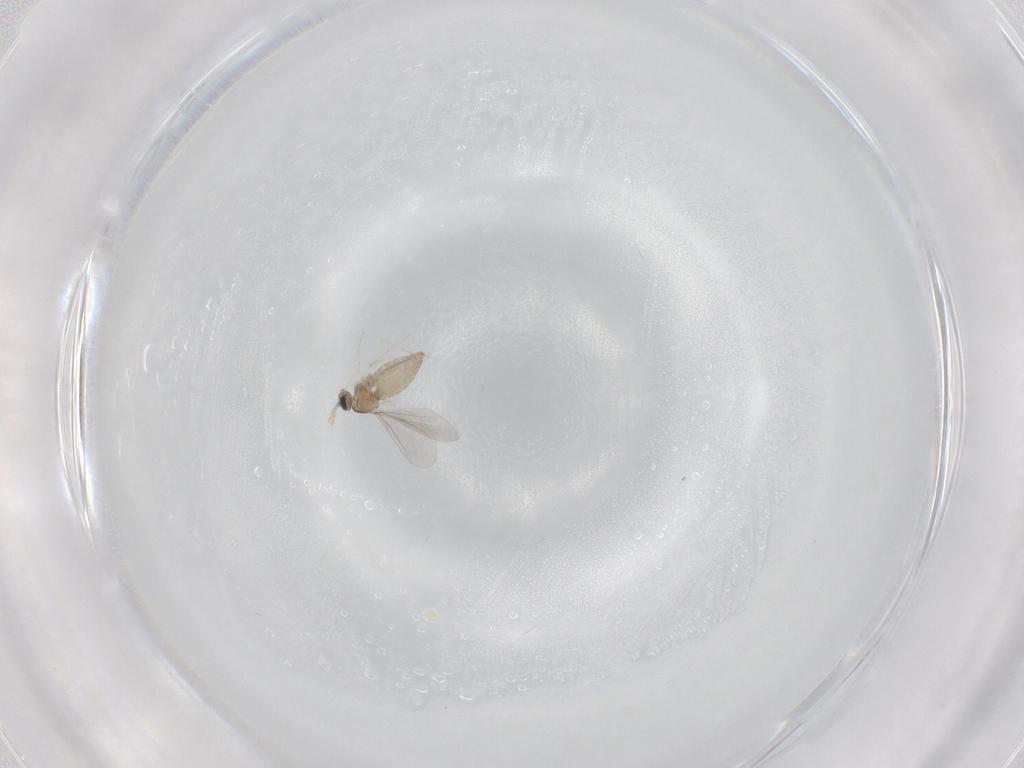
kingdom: Animalia
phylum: Arthropoda
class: Insecta
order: Diptera
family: Cecidomyiidae
